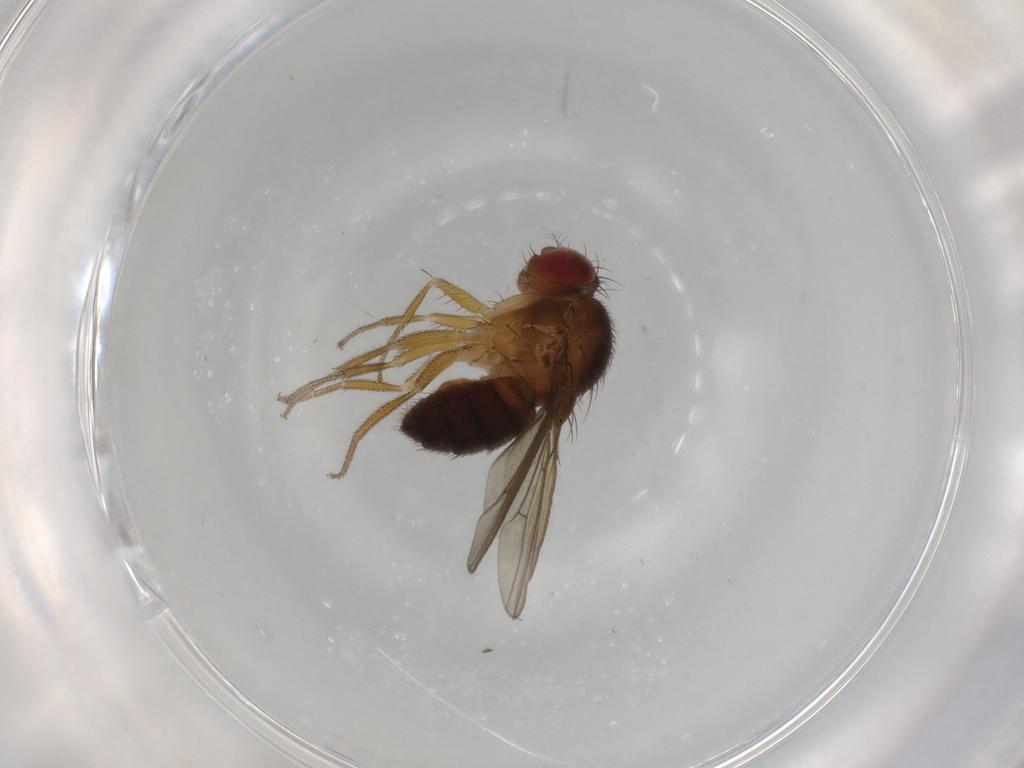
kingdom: Animalia
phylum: Arthropoda
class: Insecta
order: Diptera
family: Drosophilidae
